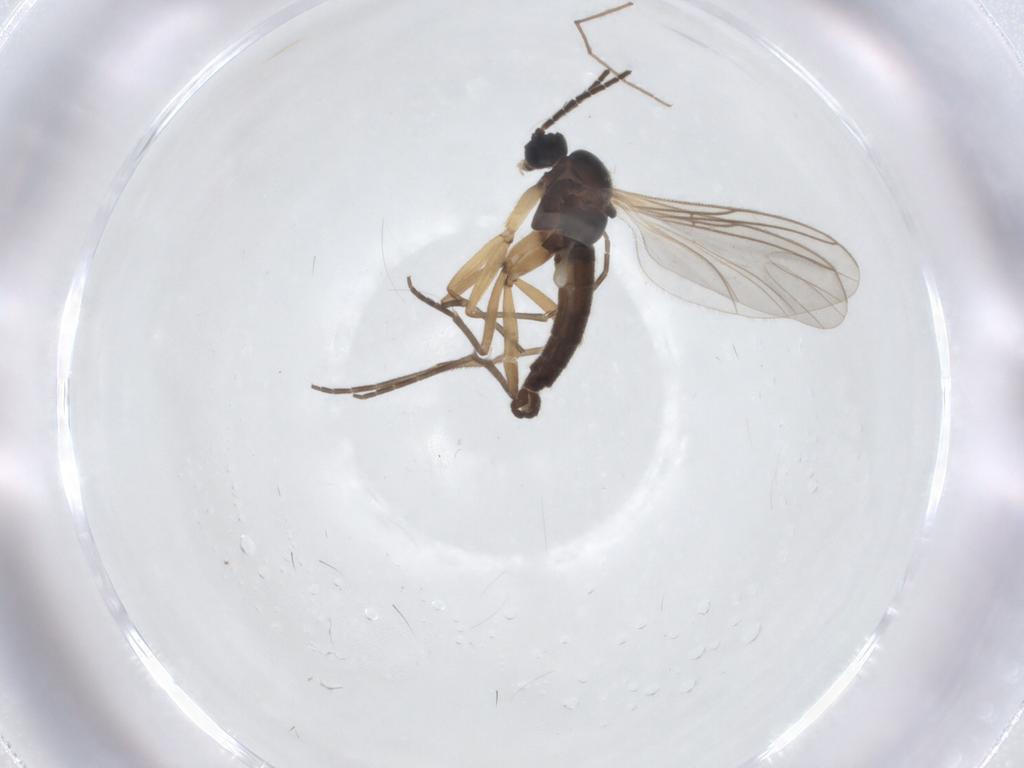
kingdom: Animalia
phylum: Arthropoda
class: Insecta
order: Diptera
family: Sciaridae
